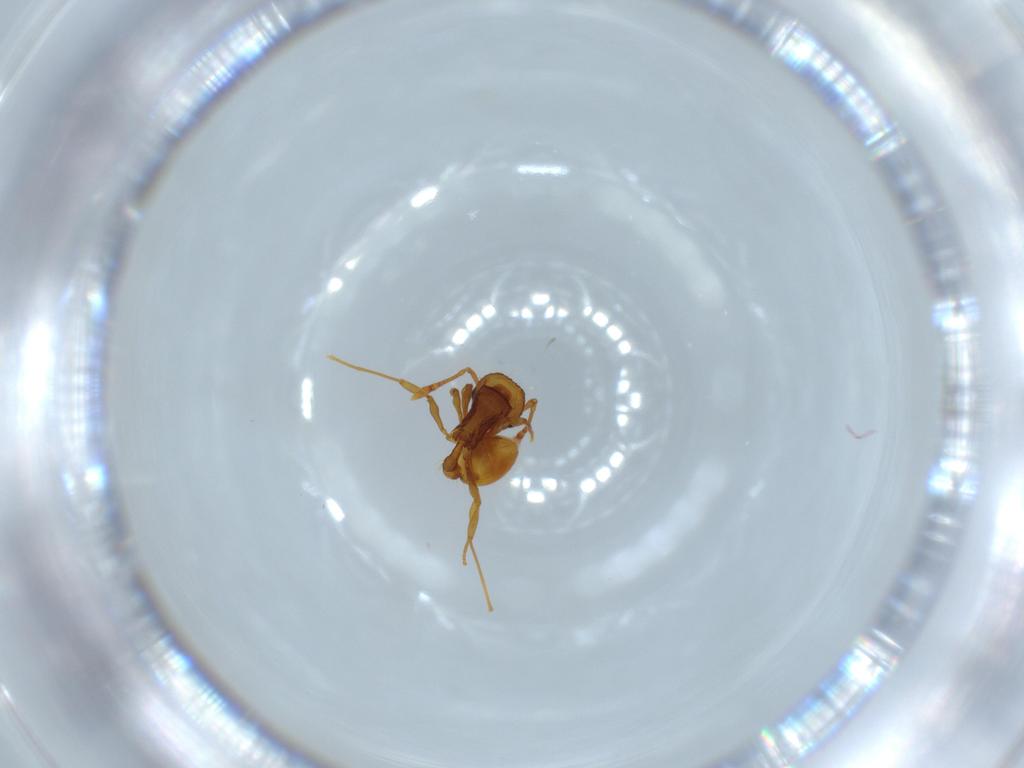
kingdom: Animalia
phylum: Arthropoda
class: Insecta
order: Hymenoptera
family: Formicidae
